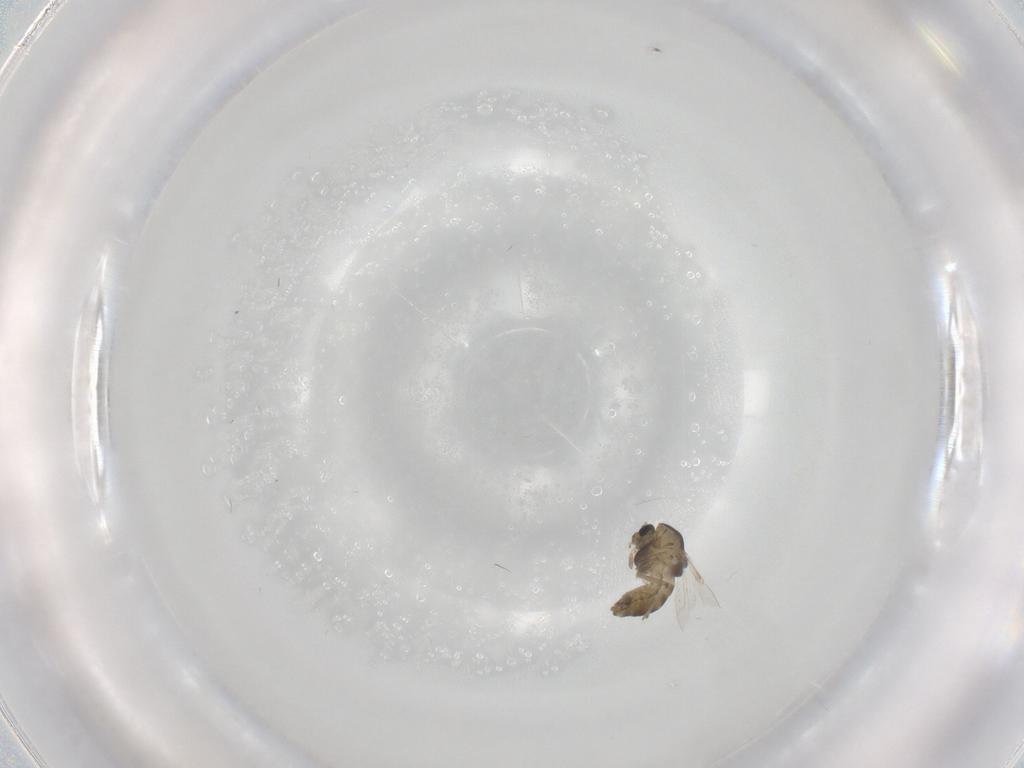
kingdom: Animalia
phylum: Arthropoda
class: Insecta
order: Diptera
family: Chironomidae
